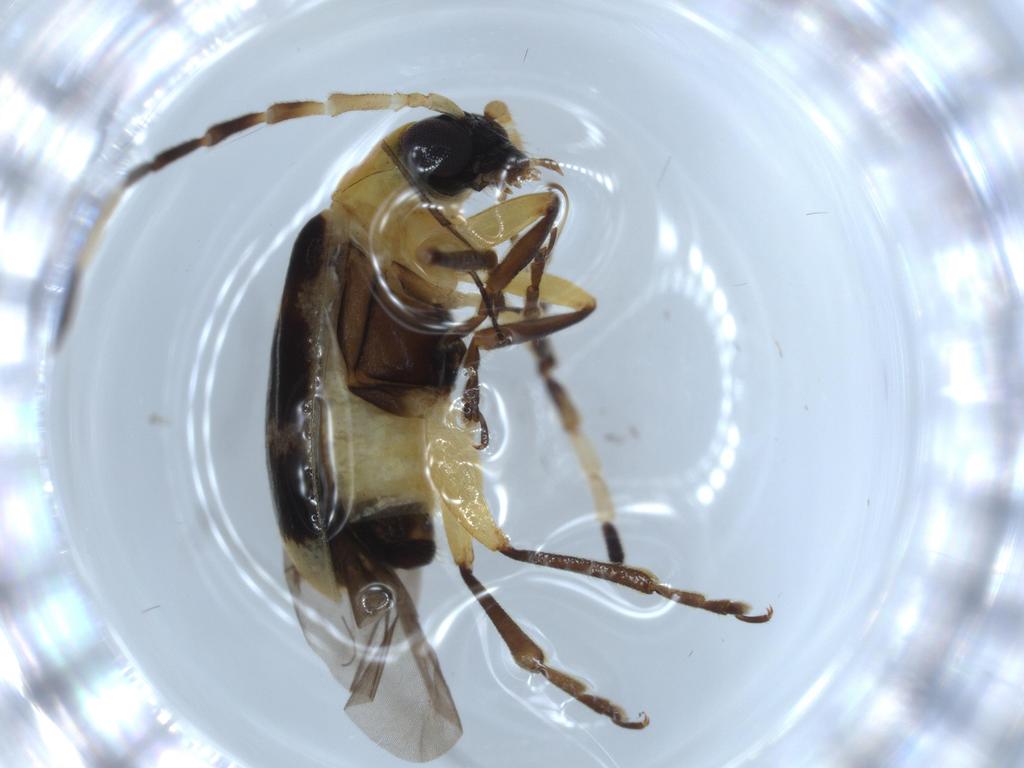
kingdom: Animalia
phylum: Arthropoda
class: Insecta
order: Coleoptera
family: Chrysomelidae
